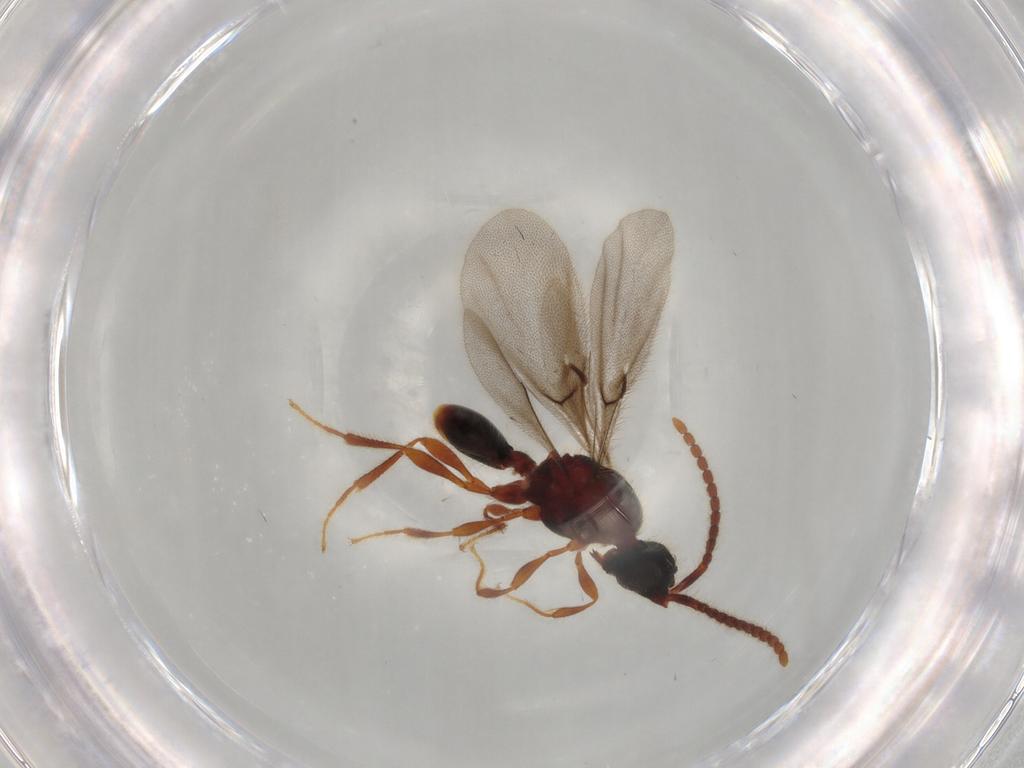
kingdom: Animalia
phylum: Arthropoda
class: Insecta
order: Hymenoptera
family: Diapriidae
